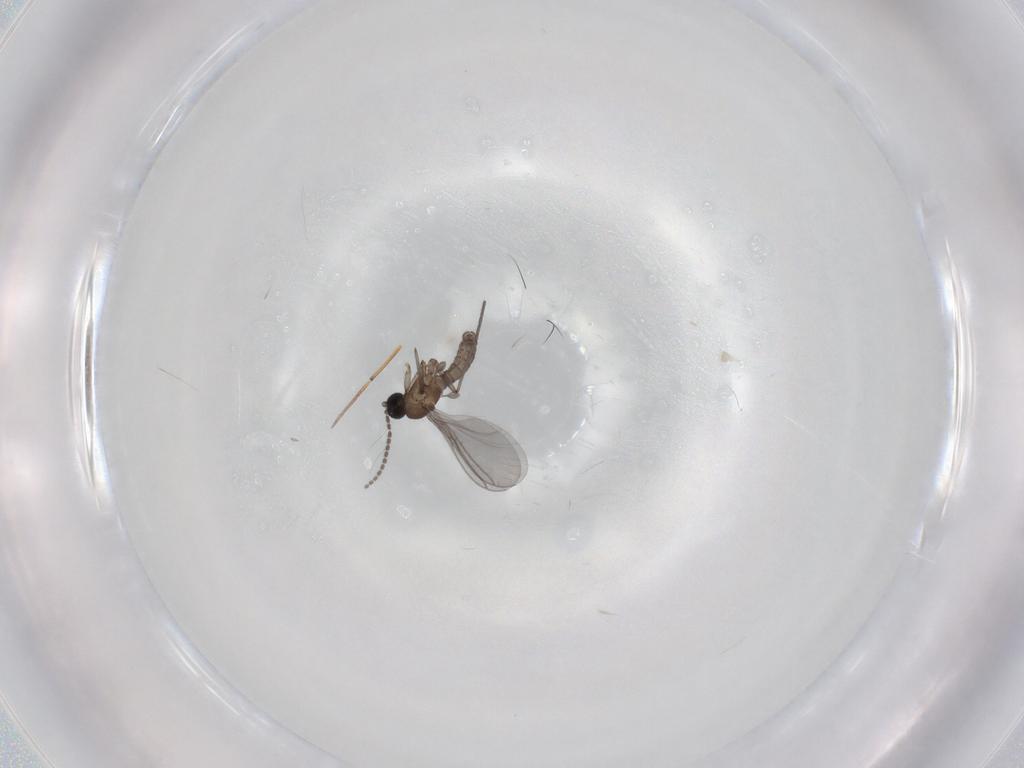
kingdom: Animalia
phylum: Arthropoda
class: Insecta
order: Diptera
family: Sciaridae
